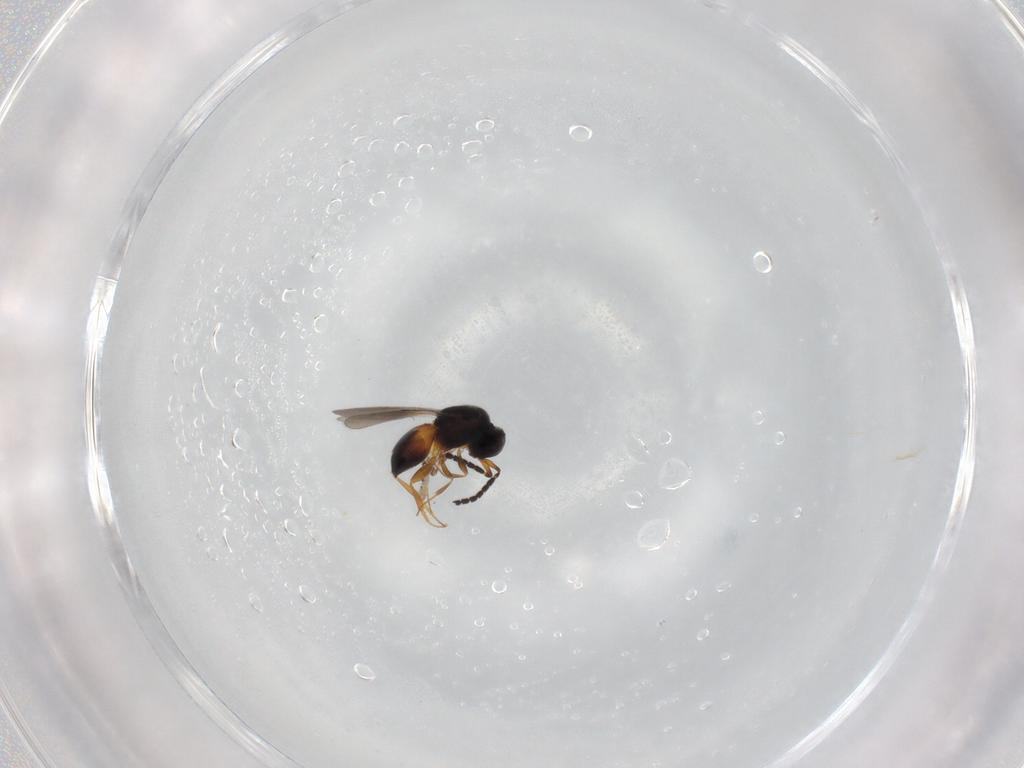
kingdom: Animalia
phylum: Arthropoda
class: Insecta
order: Hymenoptera
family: Ceraphronidae
